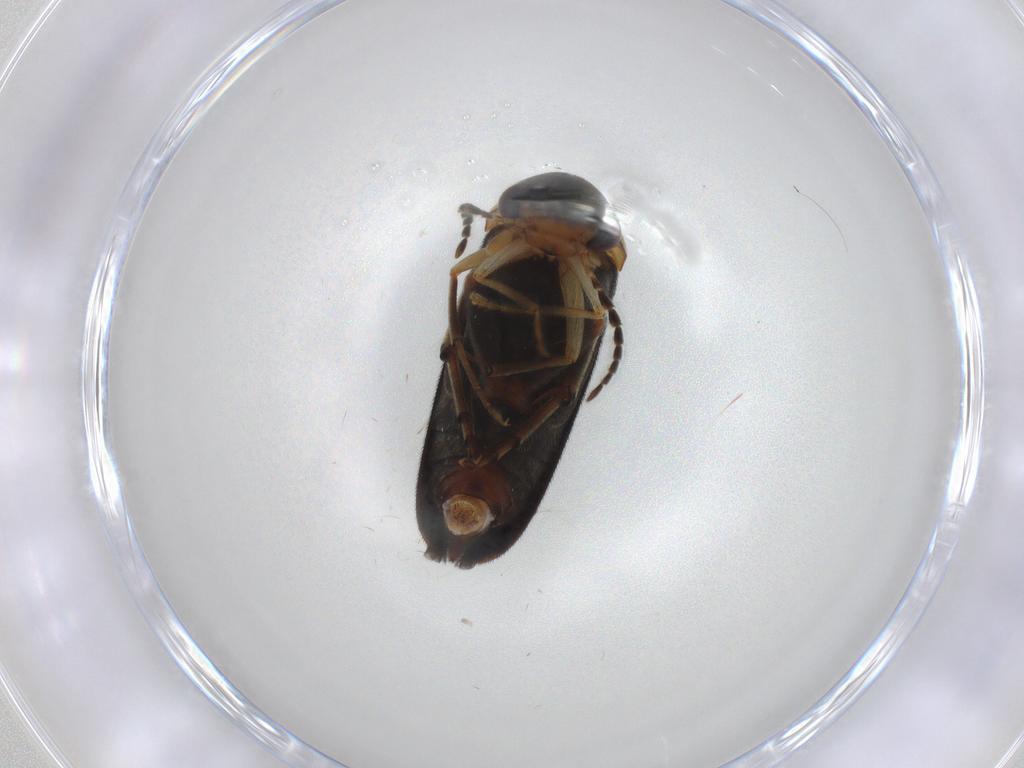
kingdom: Animalia
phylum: Arthropoda
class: Insecta
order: Coleoptera
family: Mordellidae
